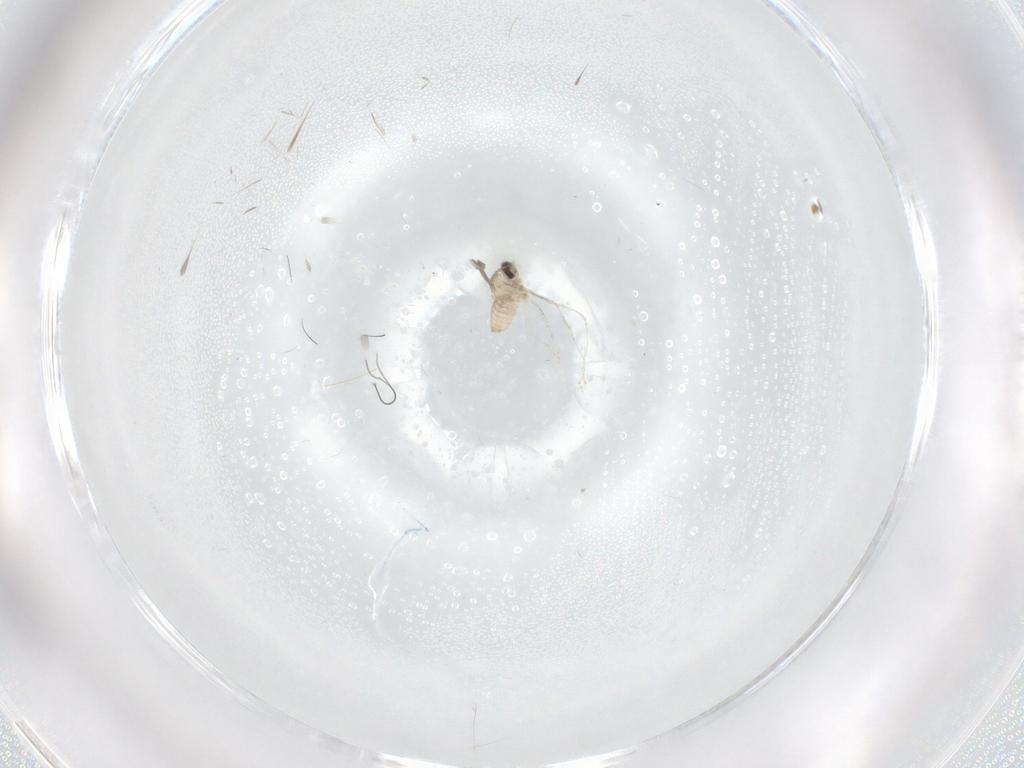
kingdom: Animalia
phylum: Arthropoda
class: Insecta
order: Diptera
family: Cecidomyiidae
